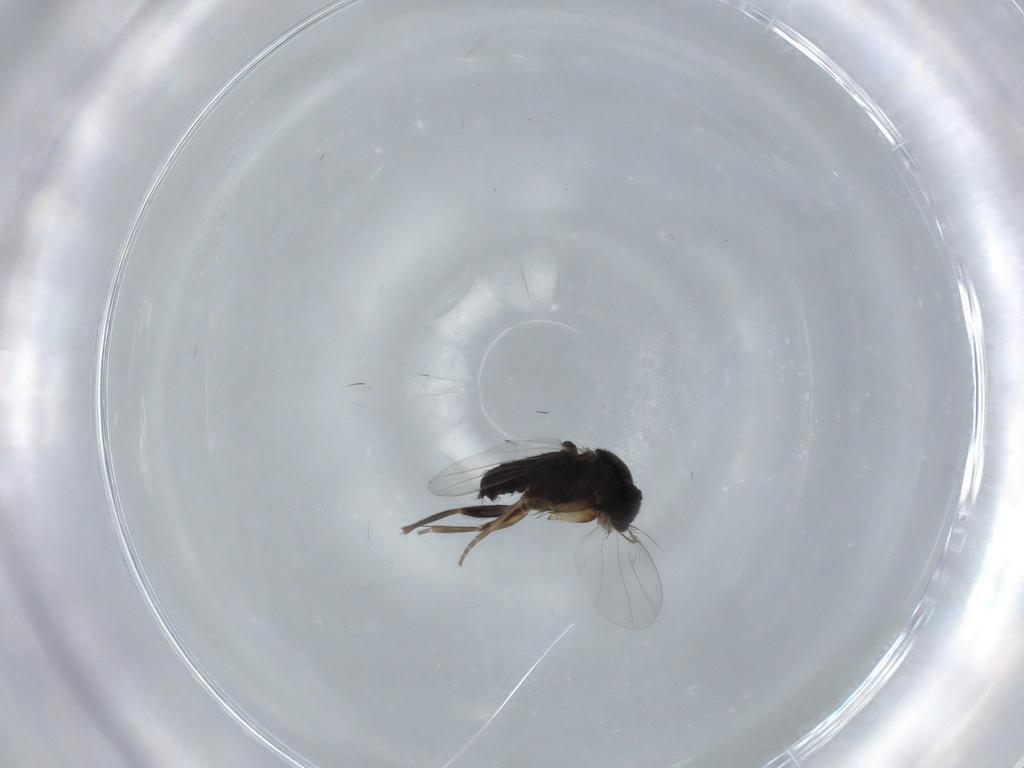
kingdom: Animalia
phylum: Arthropoda
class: Insecta
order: Diptera
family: Phoridae
